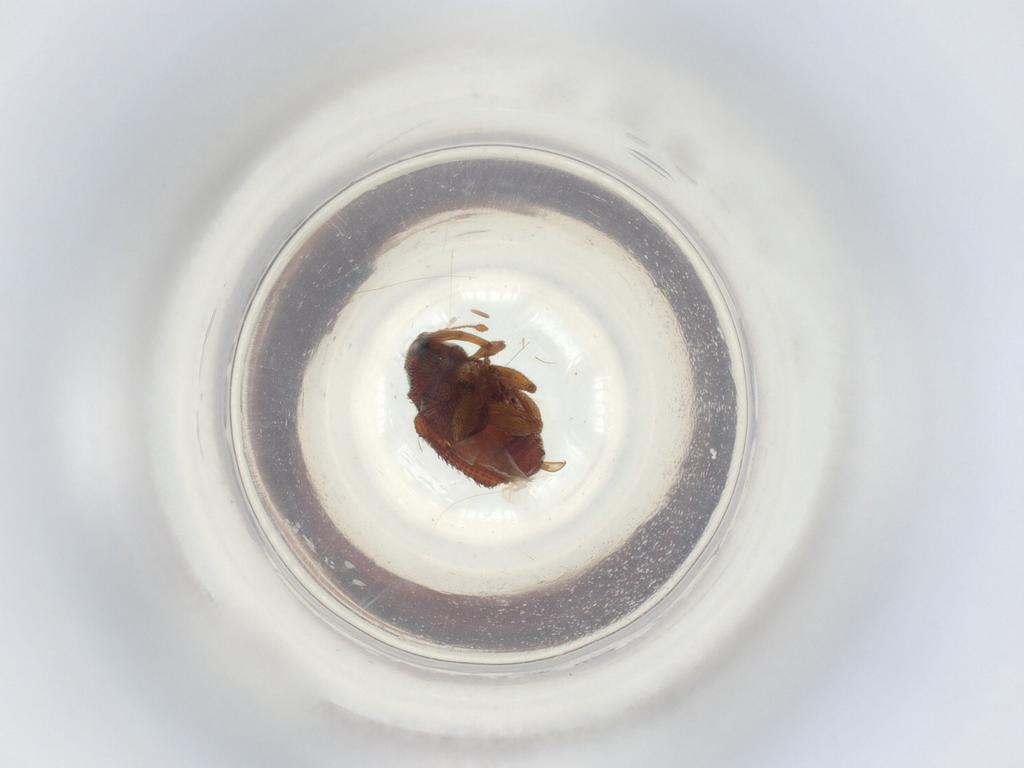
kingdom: Animalia
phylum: Arthropoda
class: Insecta
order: Coleoptera
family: Curculionidae
